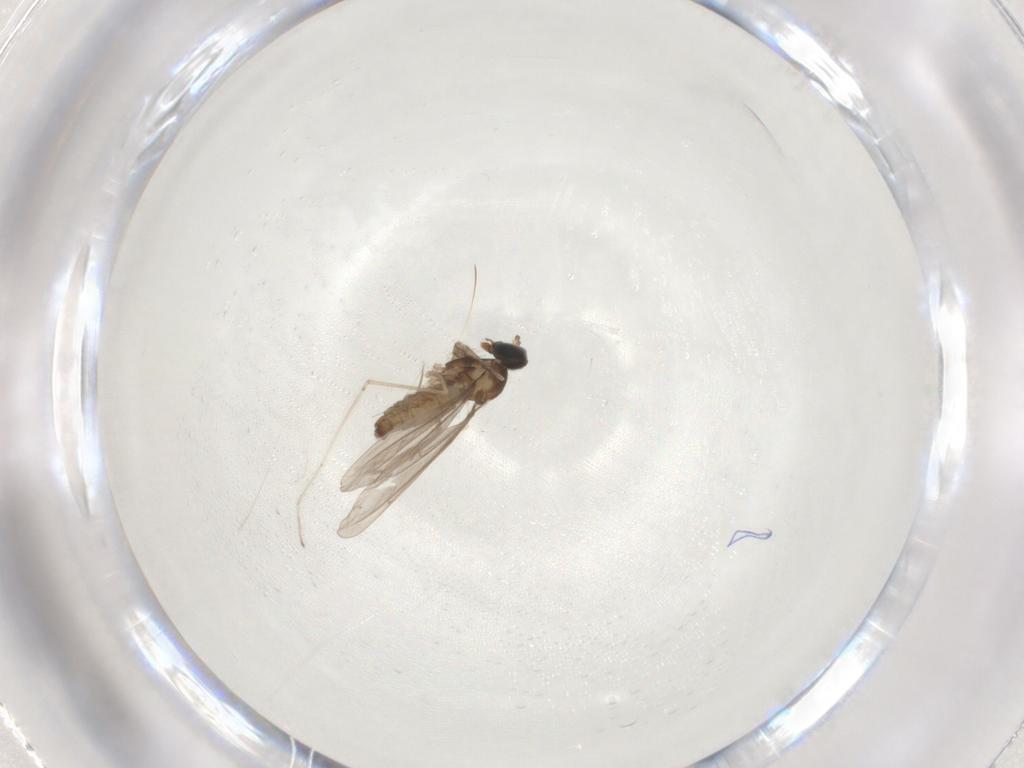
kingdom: Animalia
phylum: Arthropoda
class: Insecta
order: Diptera
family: Cecidomyiidae
